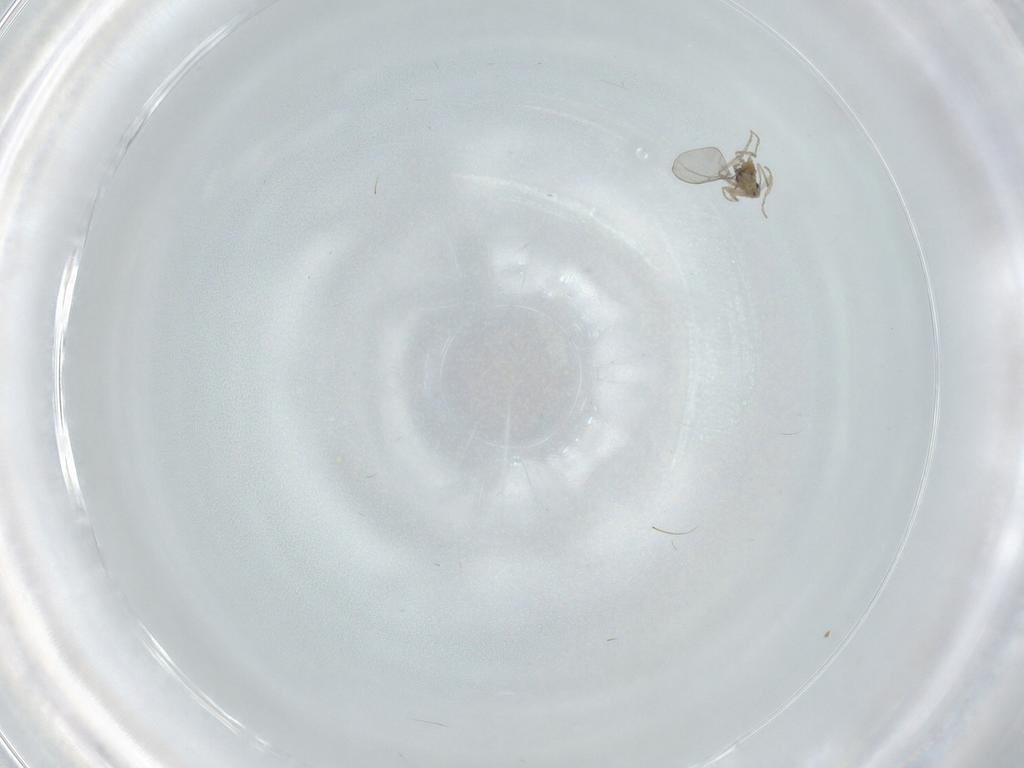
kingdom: Animalia
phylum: Arthropoda
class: Insecta
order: Diptera
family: Cecidomyiidae
